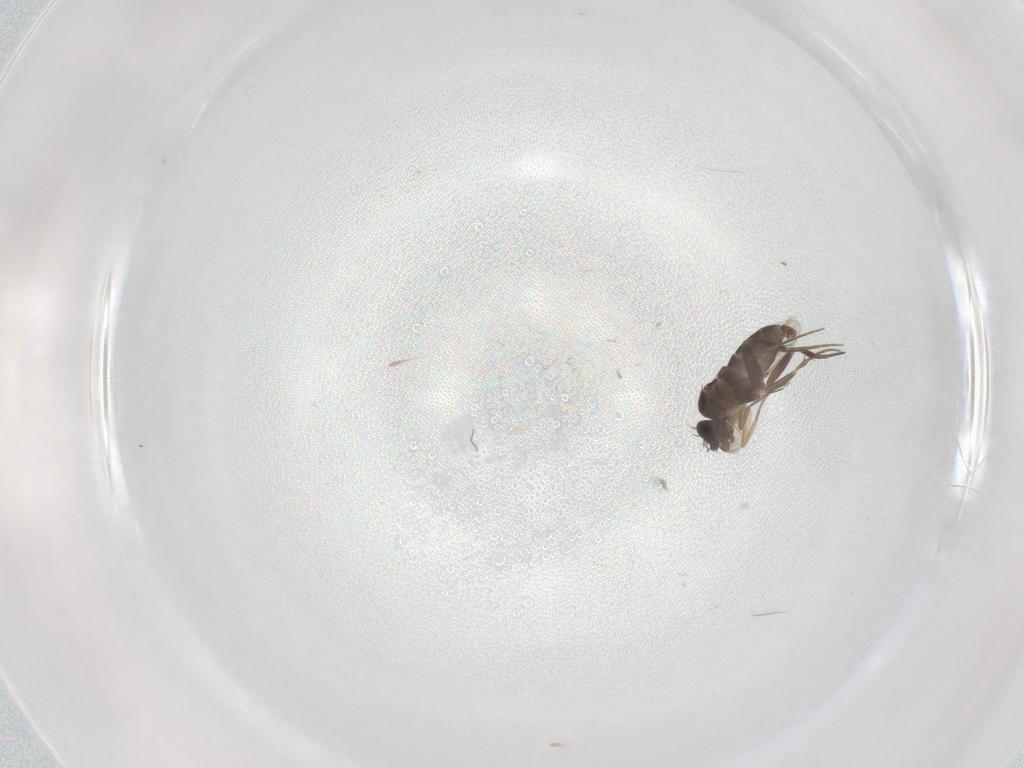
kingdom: Animalia
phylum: Arthropoda
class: Insecta
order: Diptera
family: Phoridae
